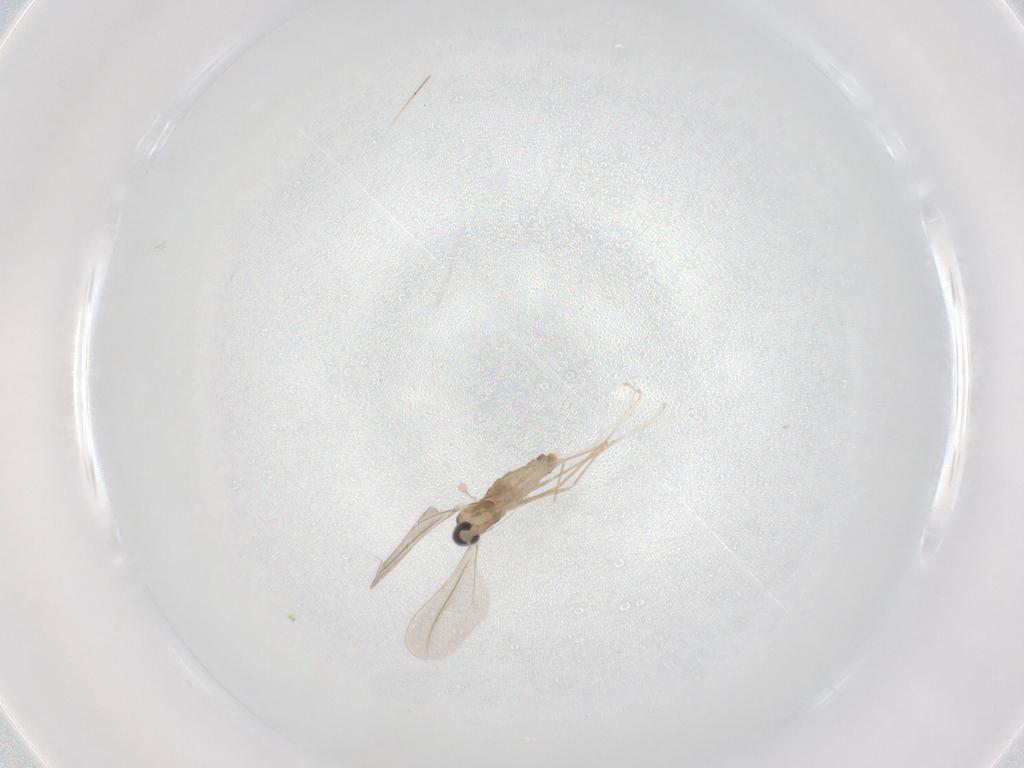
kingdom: Animalia
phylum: Arthropoda
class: Insecta
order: Diptera
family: Cecidomyiidae
